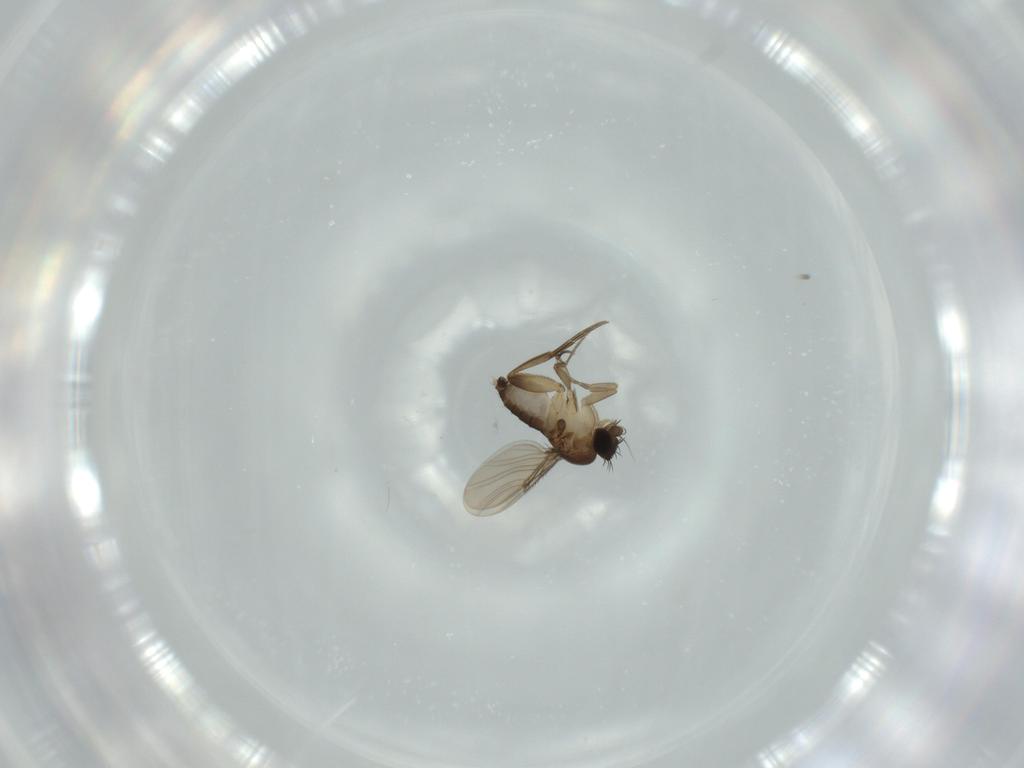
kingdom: Animalia
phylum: Arthropoda
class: Insecta
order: Diptera
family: Phoridae
